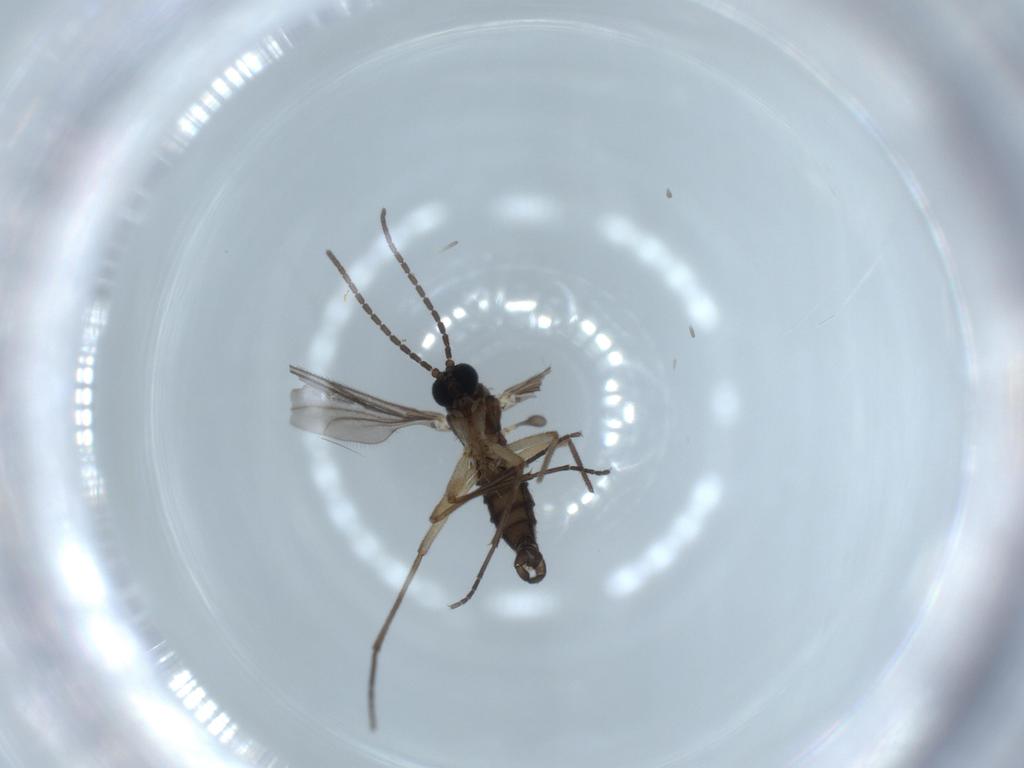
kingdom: Animalia
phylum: Arthropoda
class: Insecta
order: Diptera
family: Sciaridae
